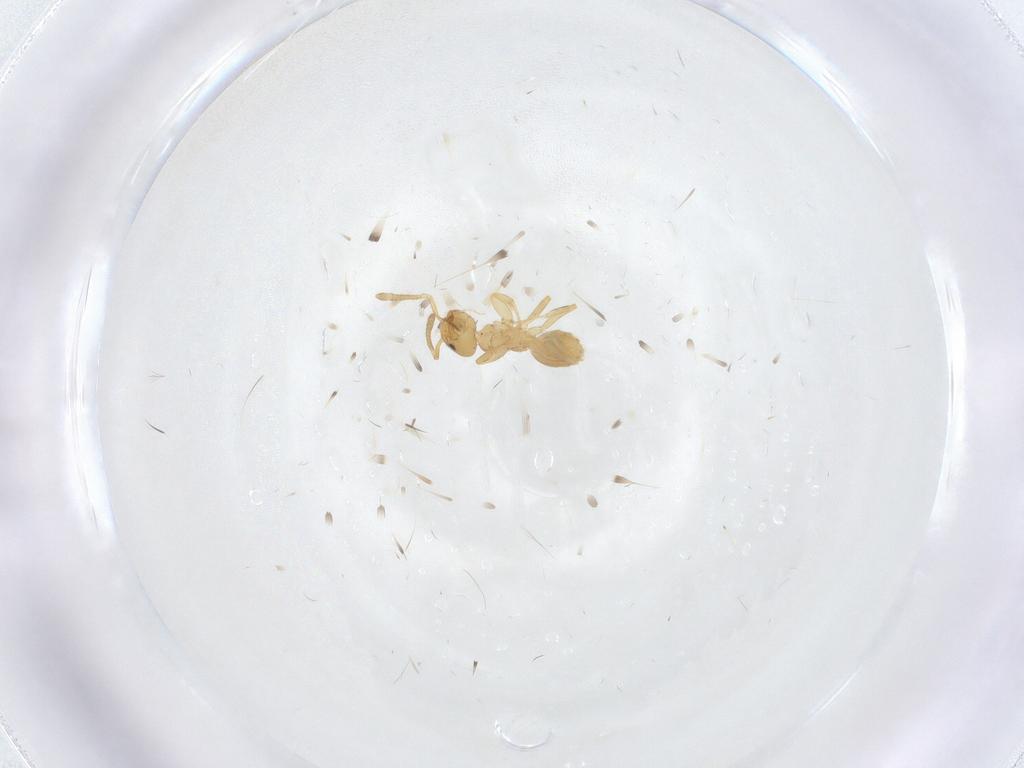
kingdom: Animalia
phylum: Arthropoda
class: Insecta
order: Hymenoptera
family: Formicidae
